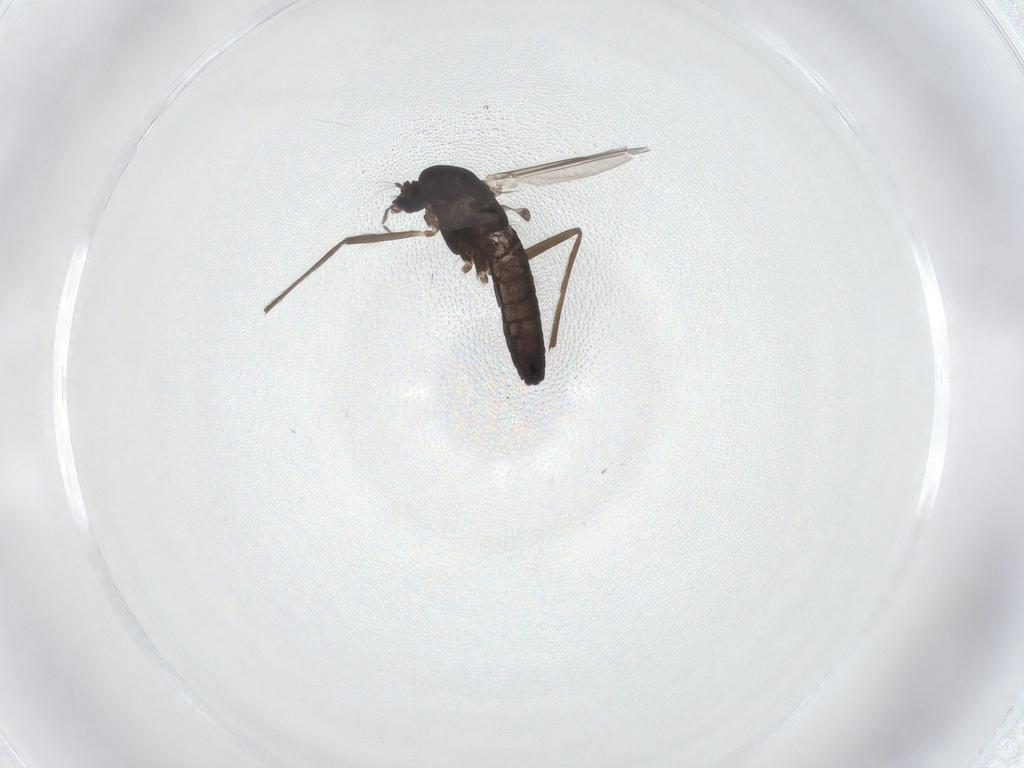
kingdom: Animalia
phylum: Arthropoda
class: Insecta
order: Diptera
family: Chironomidae
